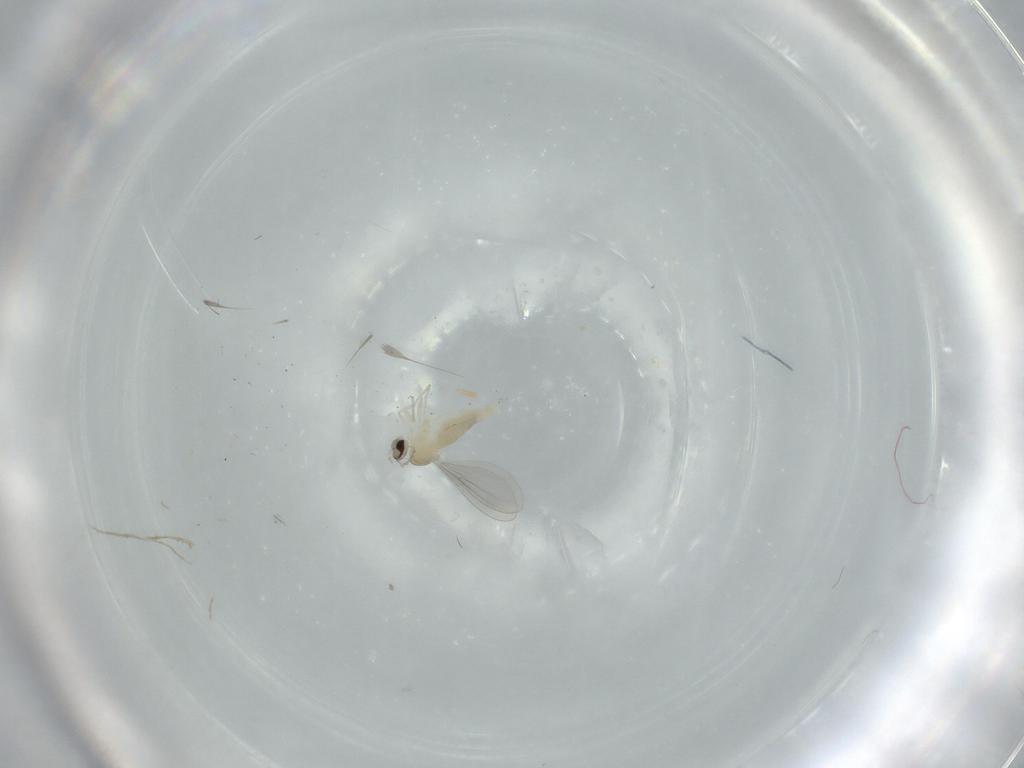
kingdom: Animalia
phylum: Arthropoda
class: Insecta
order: Diptera
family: Cecidomyiidae
